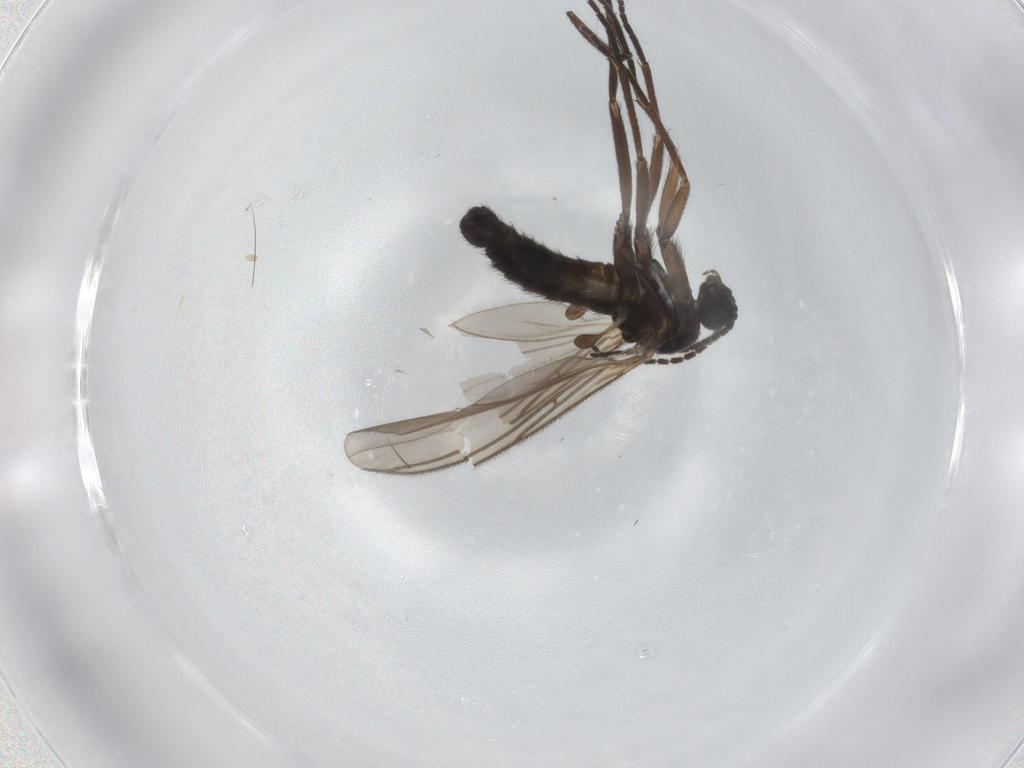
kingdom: Animalia
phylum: Arthropoda
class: Insecta
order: Diptera
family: Sciaridae
